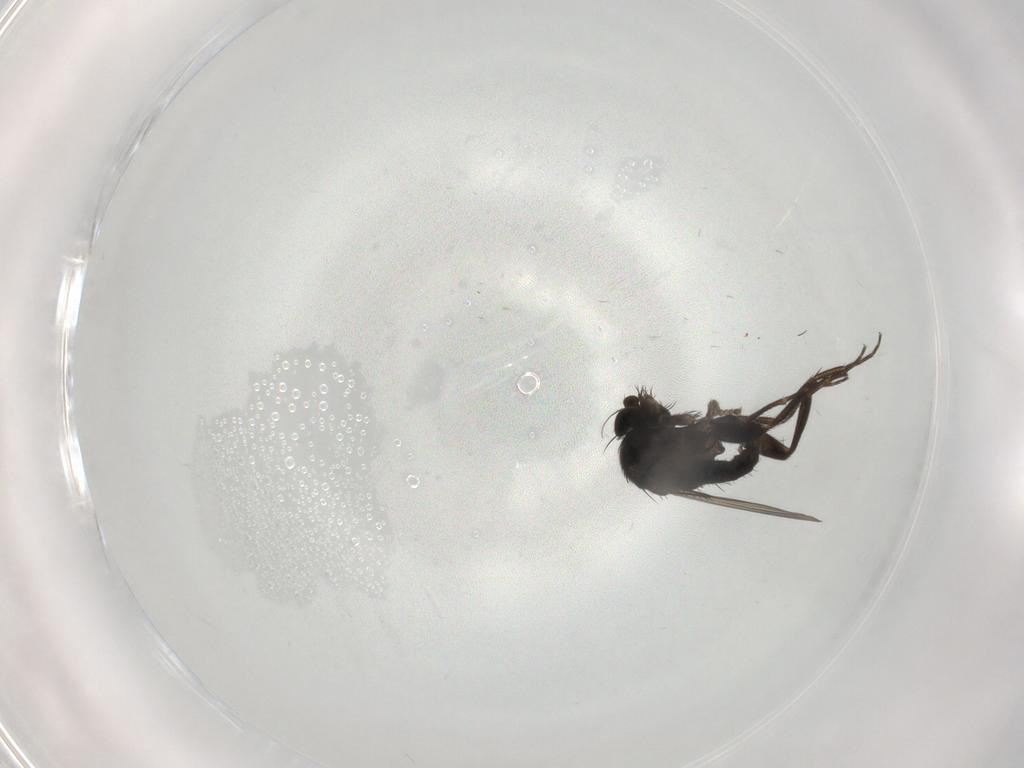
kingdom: Animalia
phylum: Arthropoda
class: Insecta
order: Diptera
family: Phoridae
